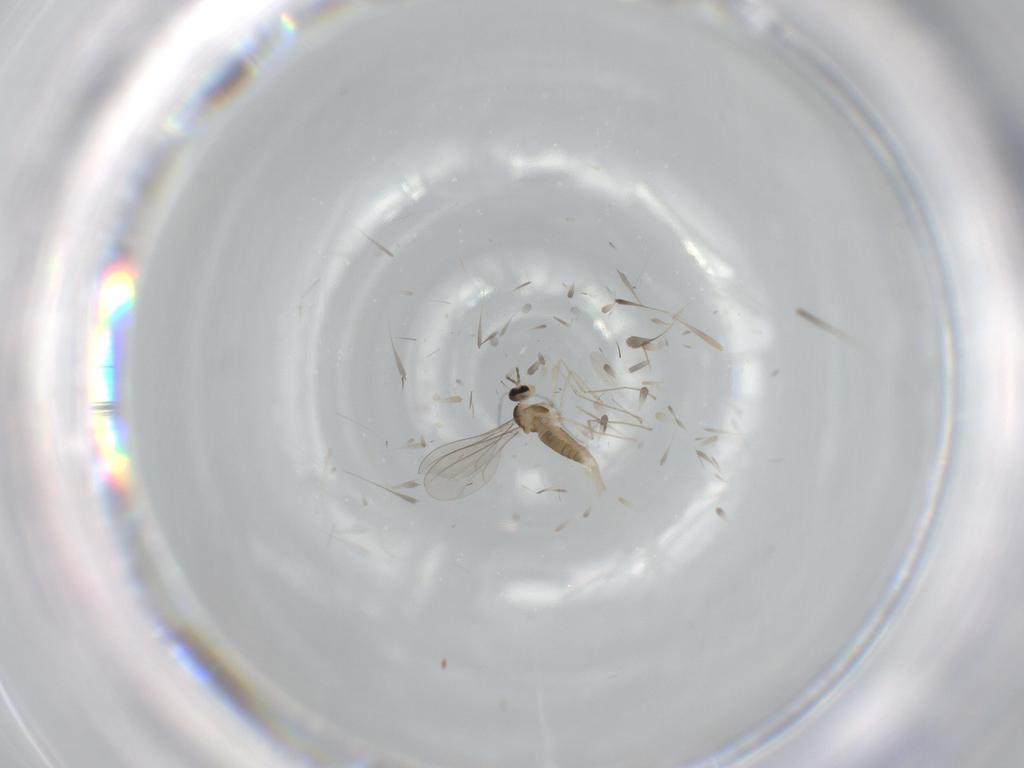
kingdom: Animalia
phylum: Arthropoda
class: Insecta
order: Diptera
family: Cecidomyiidae
